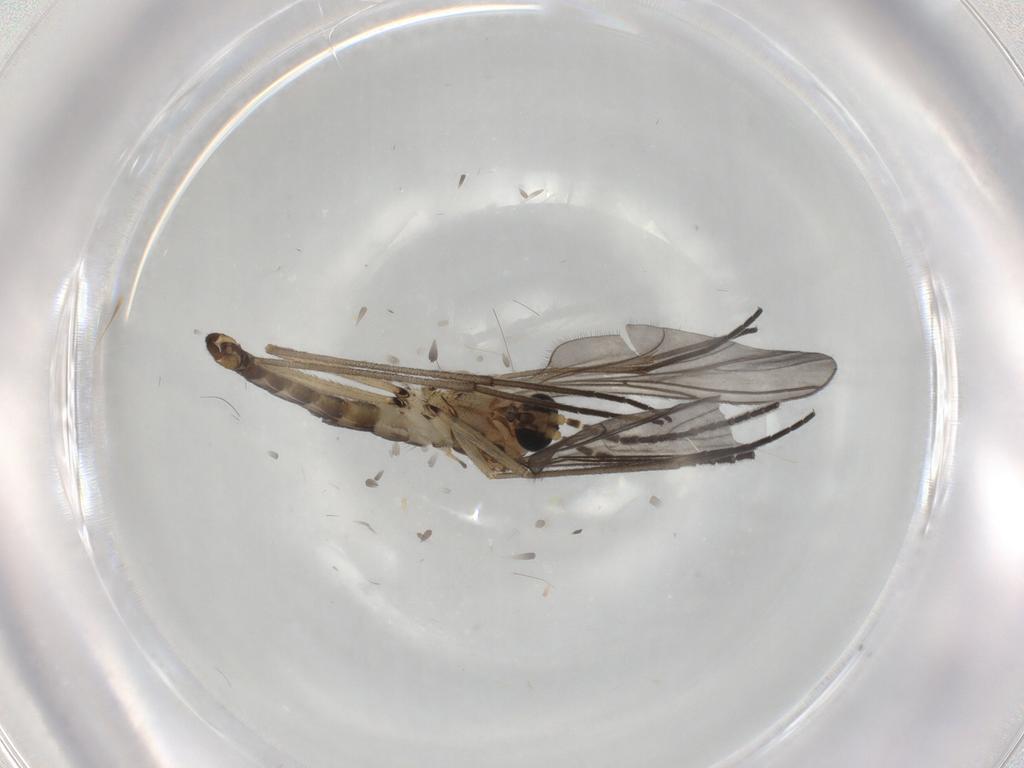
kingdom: Animalia
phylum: Arthropoda
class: Insecta
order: Diptera
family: Sciaridae
